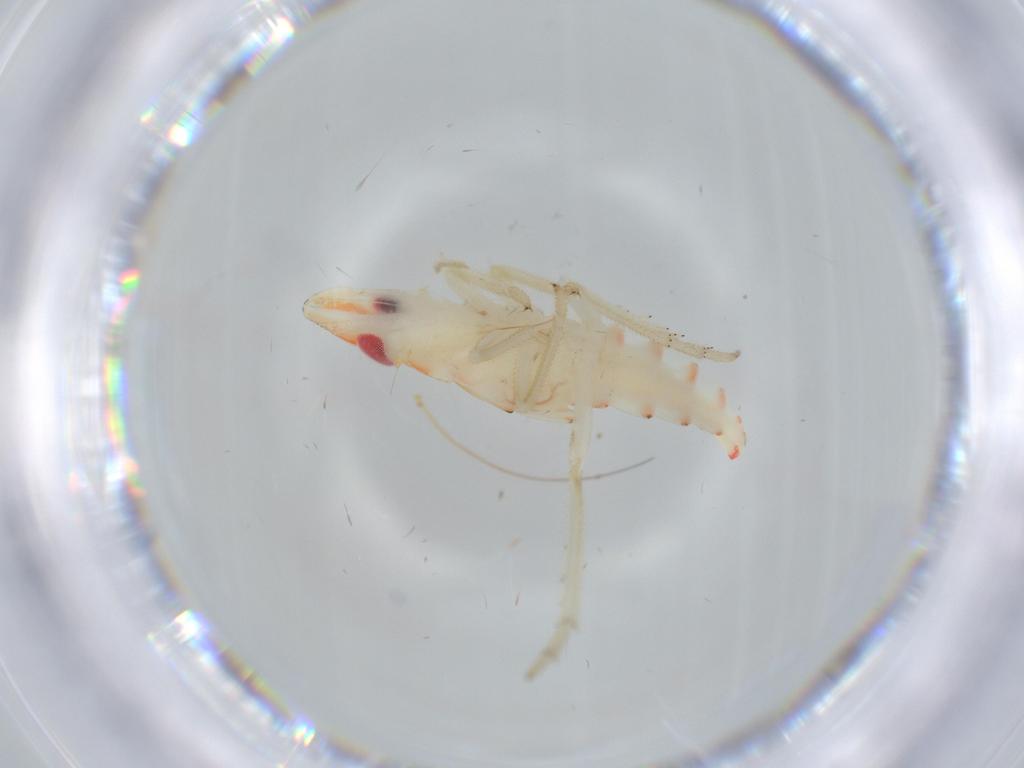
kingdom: Animalia
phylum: Arthropoda
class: Insecta
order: Hemiptera
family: Tropiduchidae
